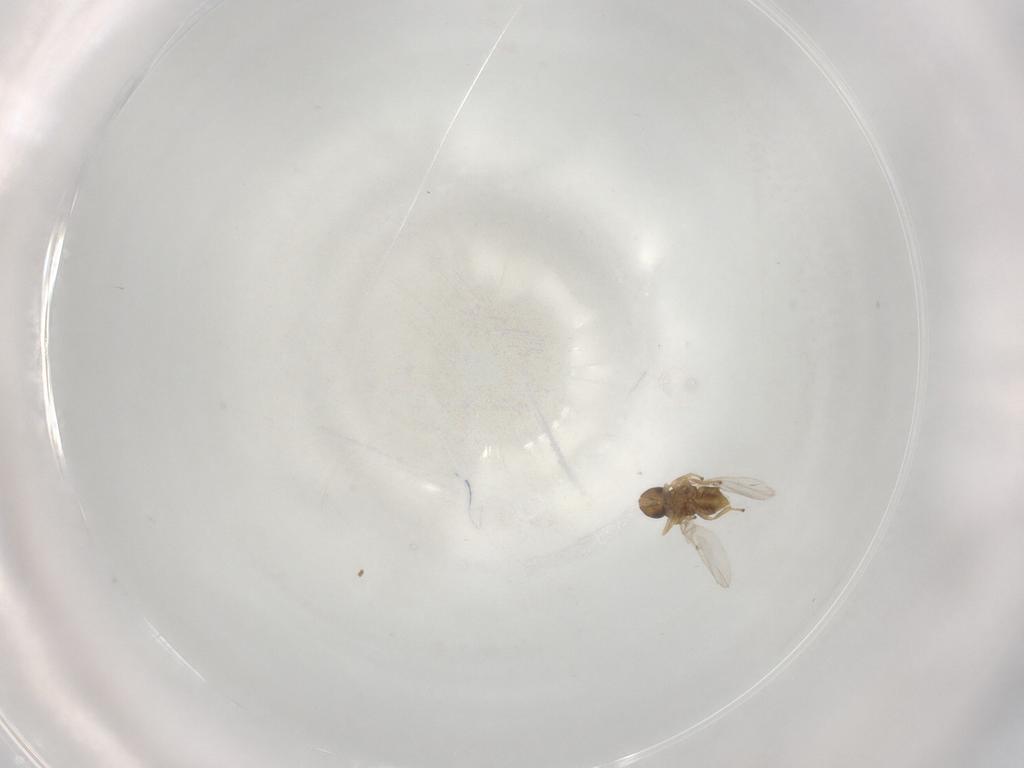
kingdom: Animalia
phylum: Arthropoda
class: Insecta
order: Hymenoptera
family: Encyrtidae
